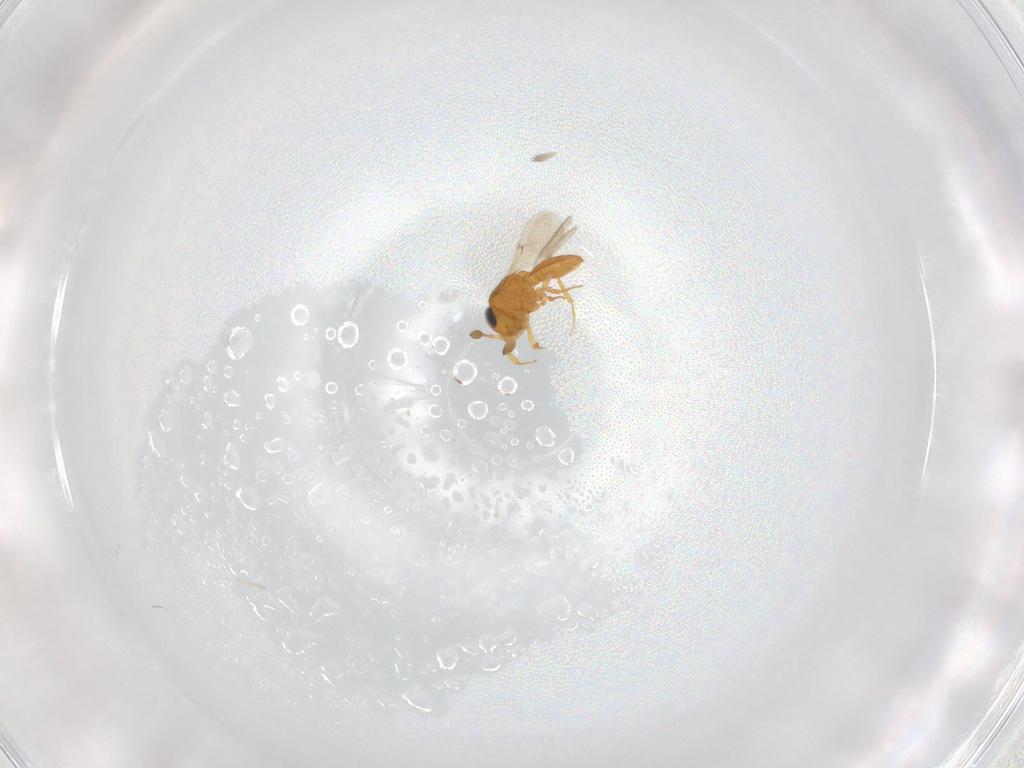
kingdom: Animalia
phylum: Arthropoda
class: Insecta
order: Hymenoptera
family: Scelionidae
